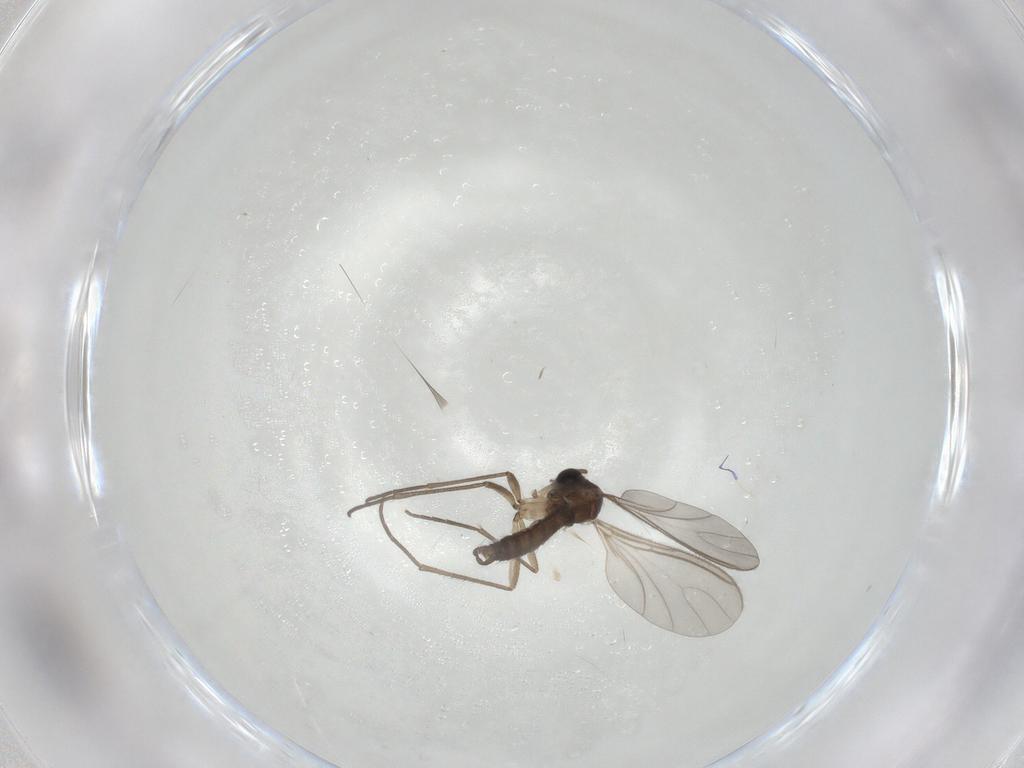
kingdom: Animalia
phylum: Arthropoda
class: Insecta
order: Diptera
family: Sciaridae
